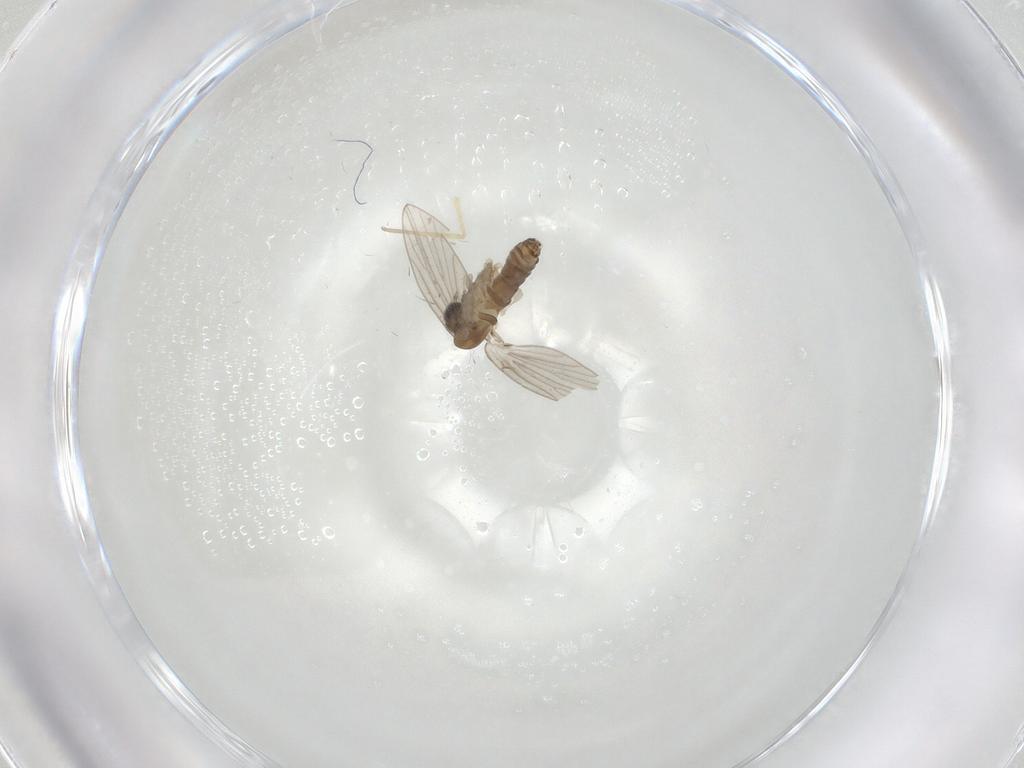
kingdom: Animalia
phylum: Arthropoda
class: Insecta
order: Diptera
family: Chironomidae
